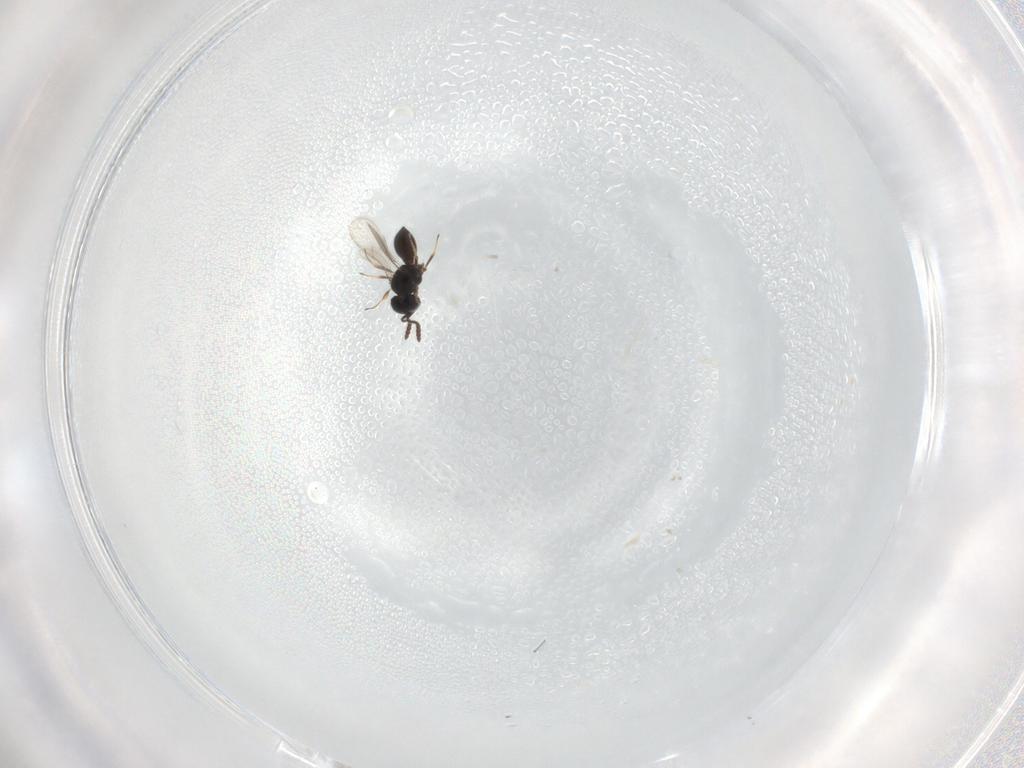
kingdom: Animalia
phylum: Arthropoda
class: Insecta
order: Hymenoptera
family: Scelionidae
